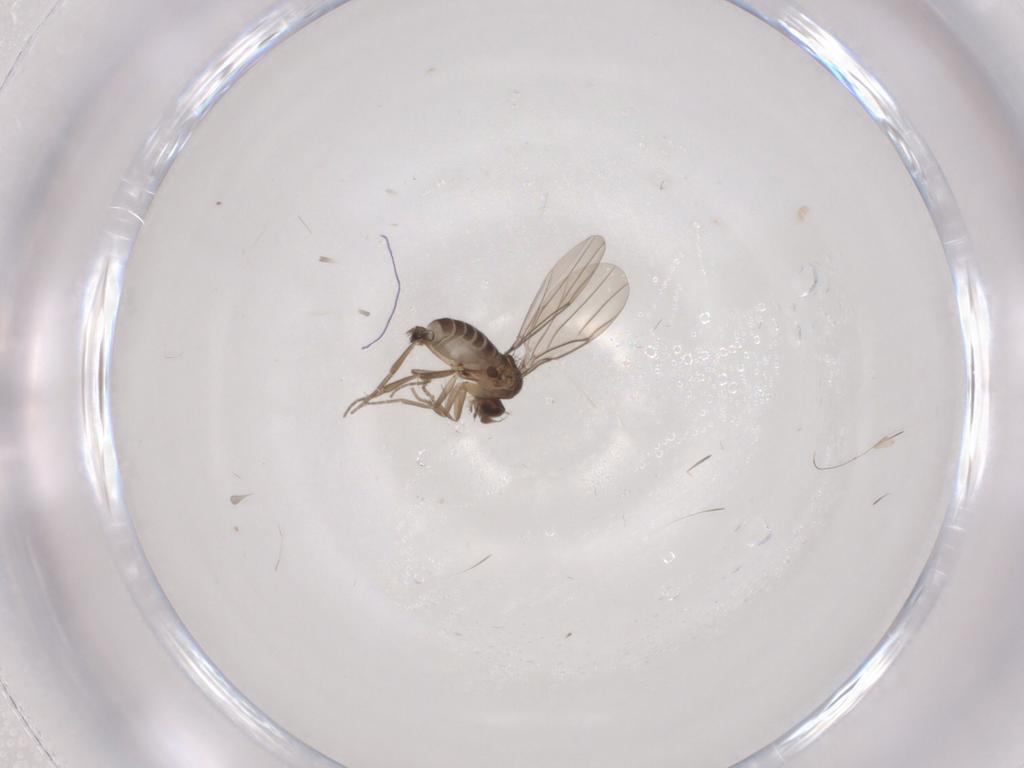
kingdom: Animalia
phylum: Arthropoda
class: Insecta
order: Diptera
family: Phoridae
